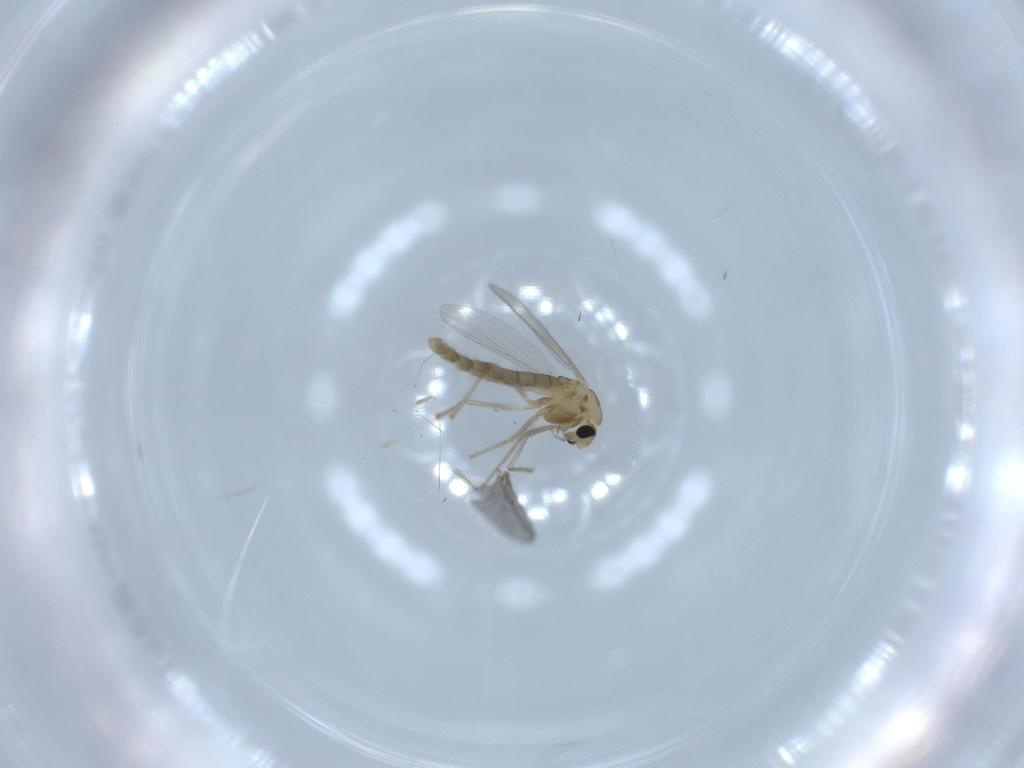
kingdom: Animalia
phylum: Arthropoda
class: Insecta
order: Diptera
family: Chironomidae
